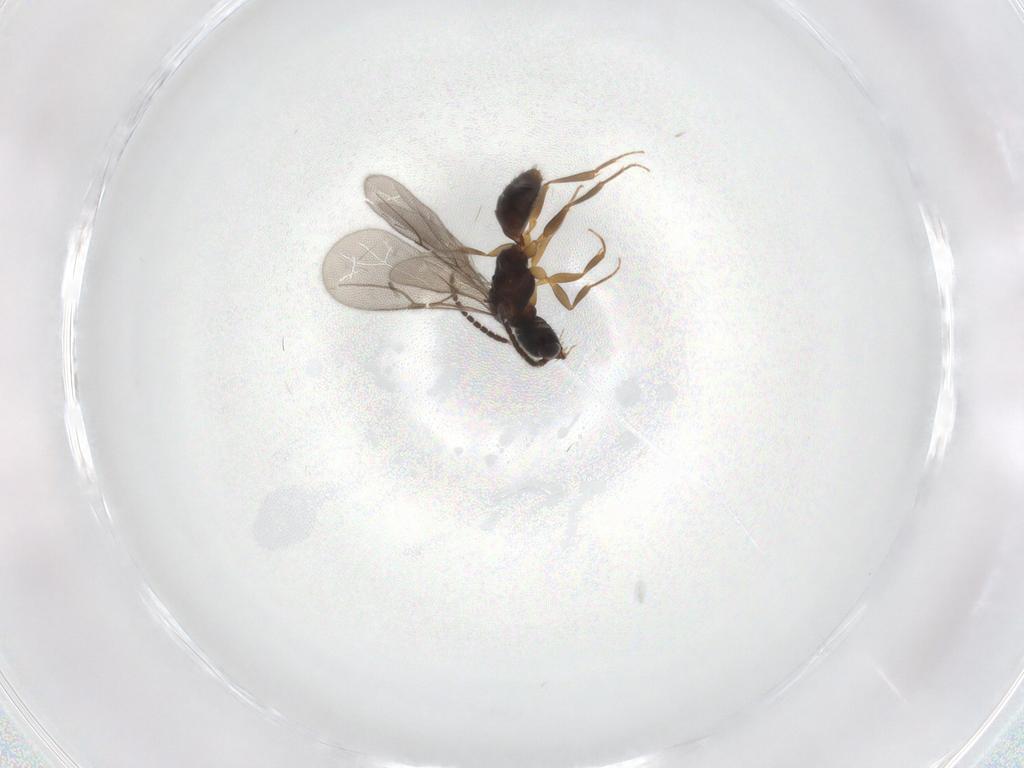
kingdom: Animalia
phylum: Arthropoda
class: Insecta
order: Hymenoptera
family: Bethylidae
